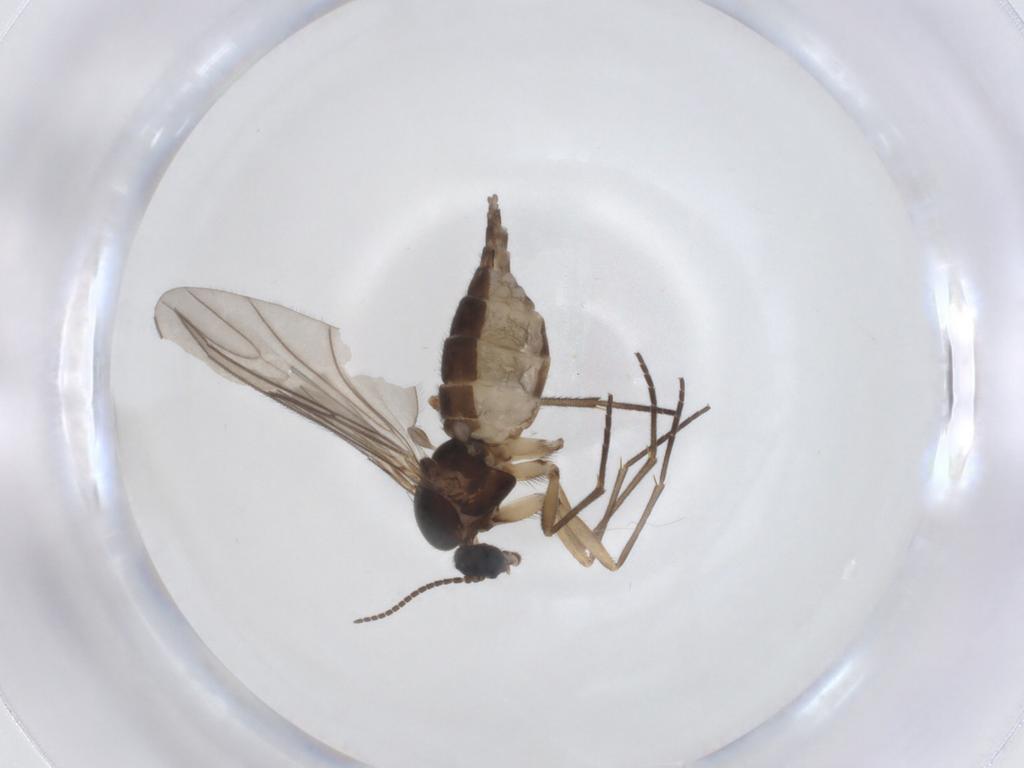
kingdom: Animalia
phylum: Arthropoda
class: Insecta
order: Diptera
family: Sciaridae
